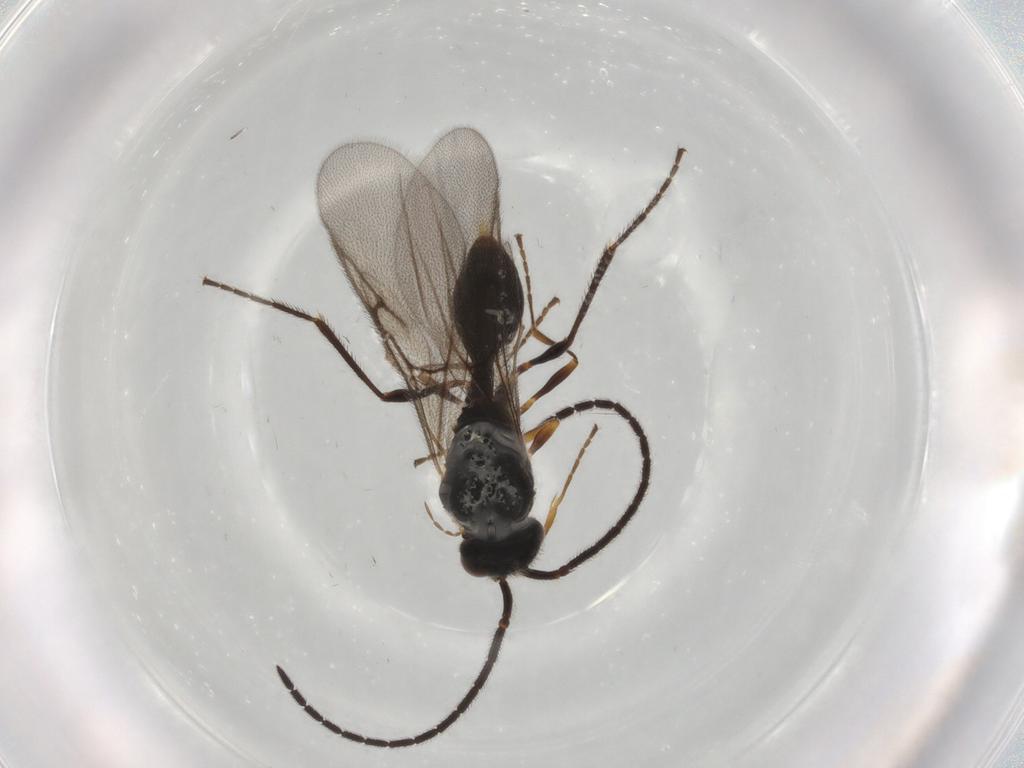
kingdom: Animalia
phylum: Arthropoda
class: Insecta
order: Hymenoptera
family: Diapriidae
